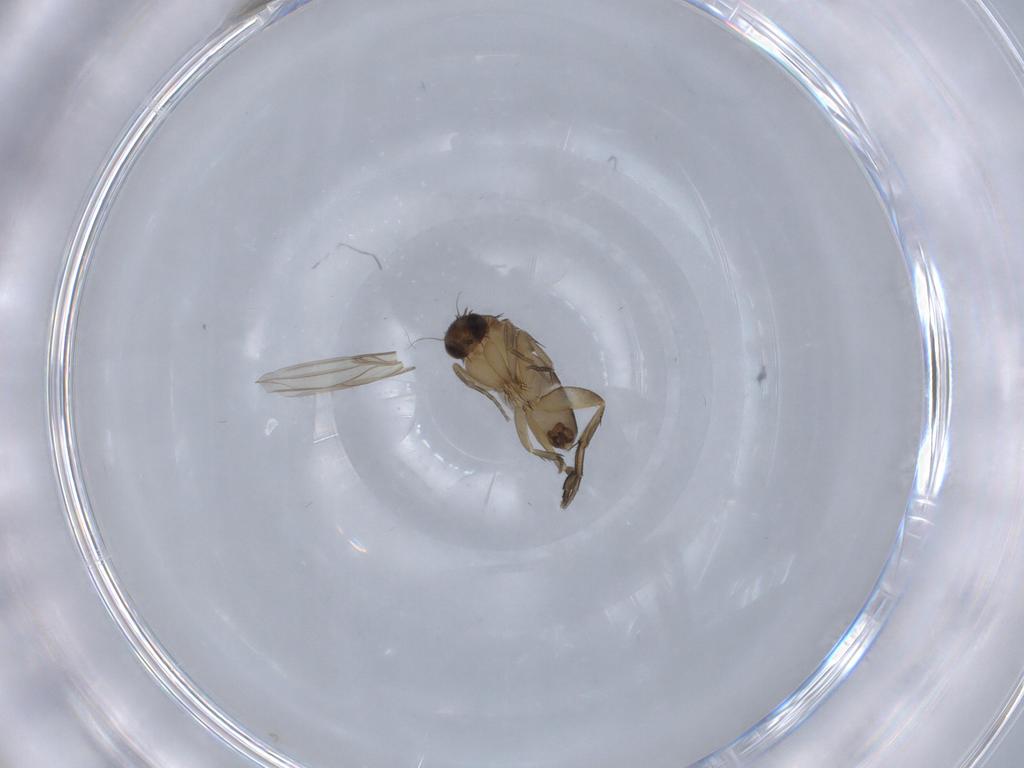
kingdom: Animalia
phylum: Arthropoda
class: Insecta
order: Diptera
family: Phoridae
